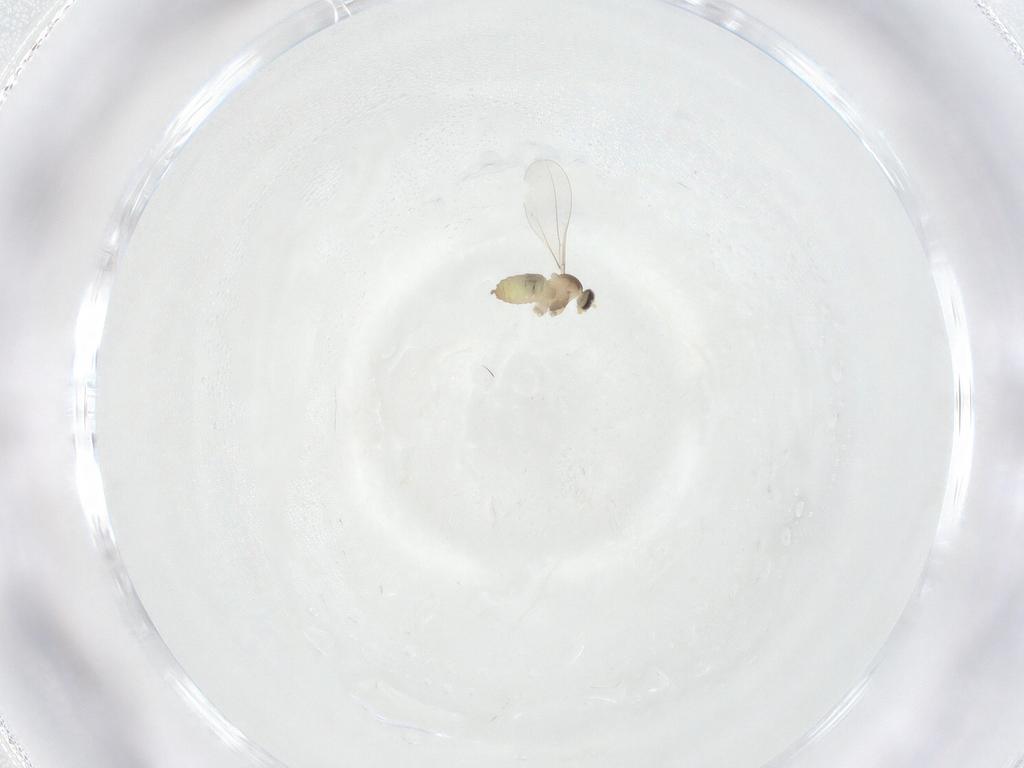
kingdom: Animalia
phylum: Arthropoda
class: Insecta
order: Diptera
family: Cecidomyiidae
